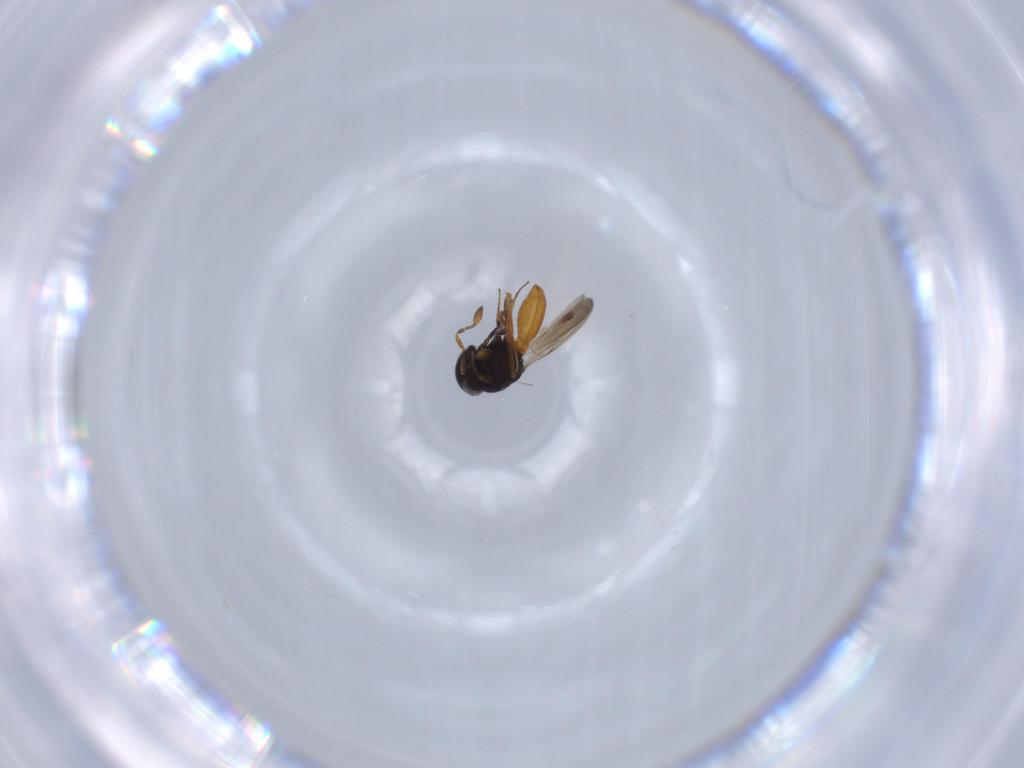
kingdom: Animalia
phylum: Arthropoda
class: Insecta
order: Hymenoptera
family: Scelionidae
